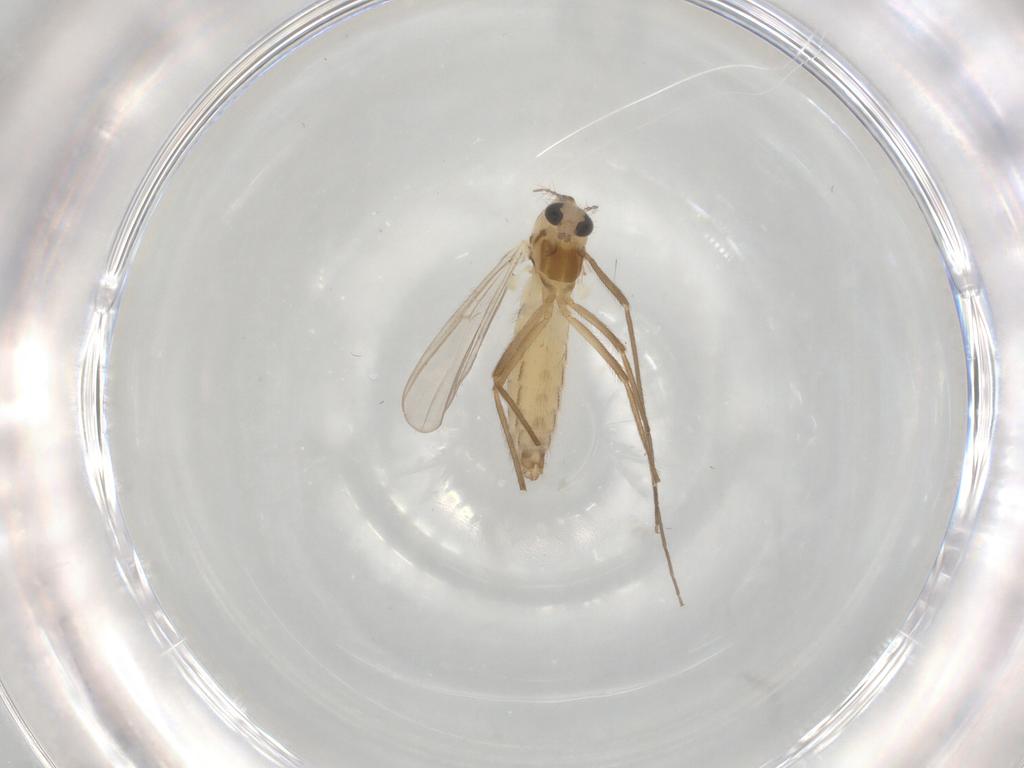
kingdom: Animalia
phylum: Arthropoda
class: Insecta
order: Diptera
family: Chironomidae
